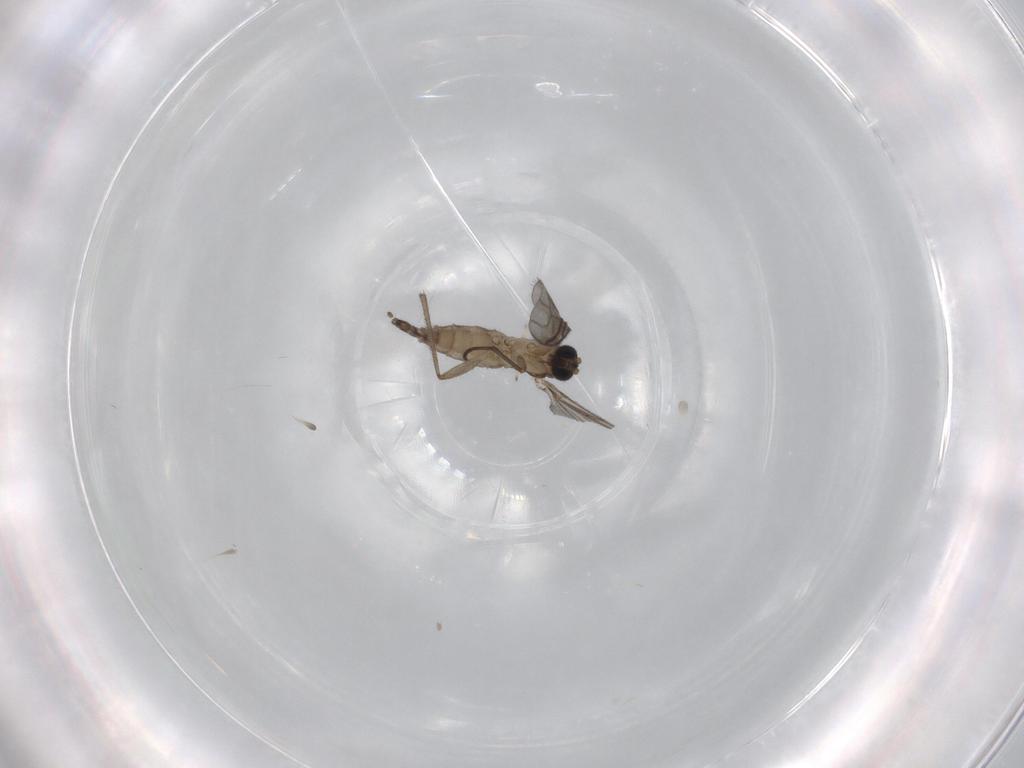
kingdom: Animalia
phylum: Arthropoda
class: Insecta
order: Diptera
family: Sciaridae
